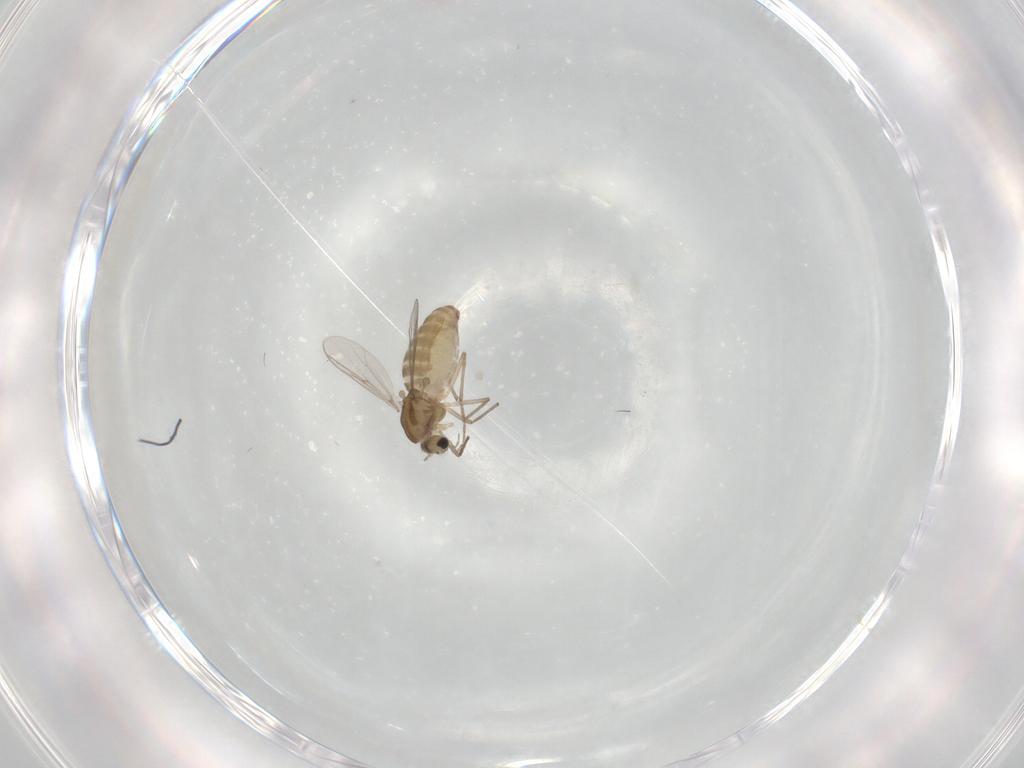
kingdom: Animalia
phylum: Arthropoda
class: Insecta
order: Diptera
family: Chironomidae
